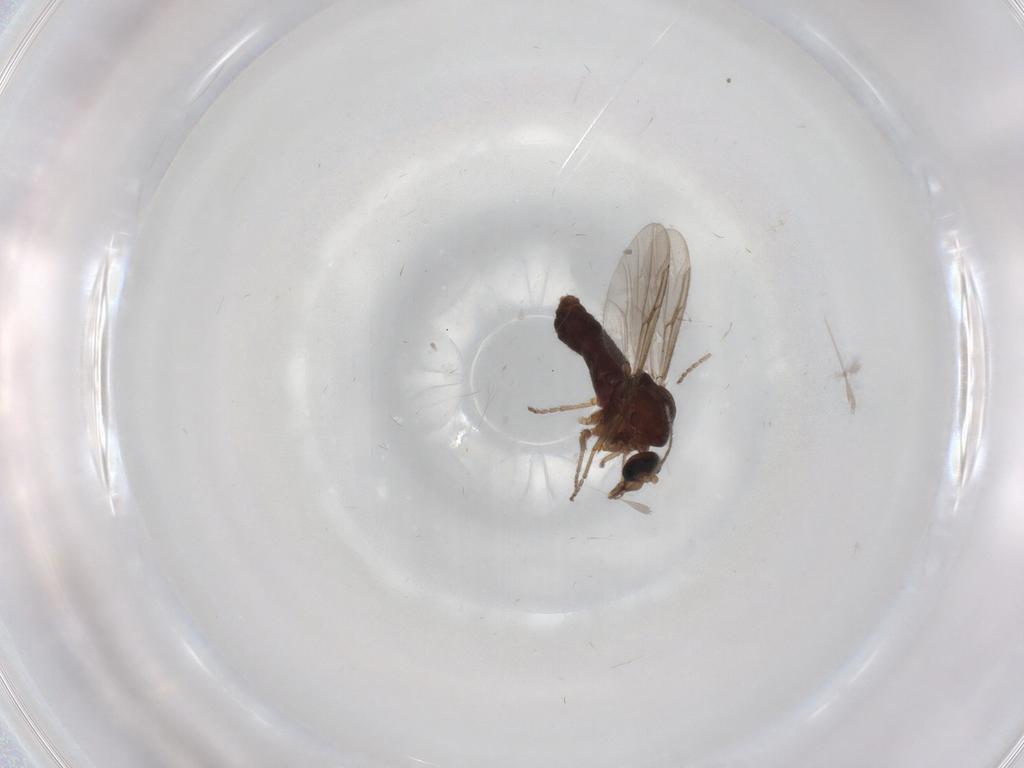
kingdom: Animalia
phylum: Arthropoda
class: Insecta
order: Diptera
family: Ceratopogonidae
